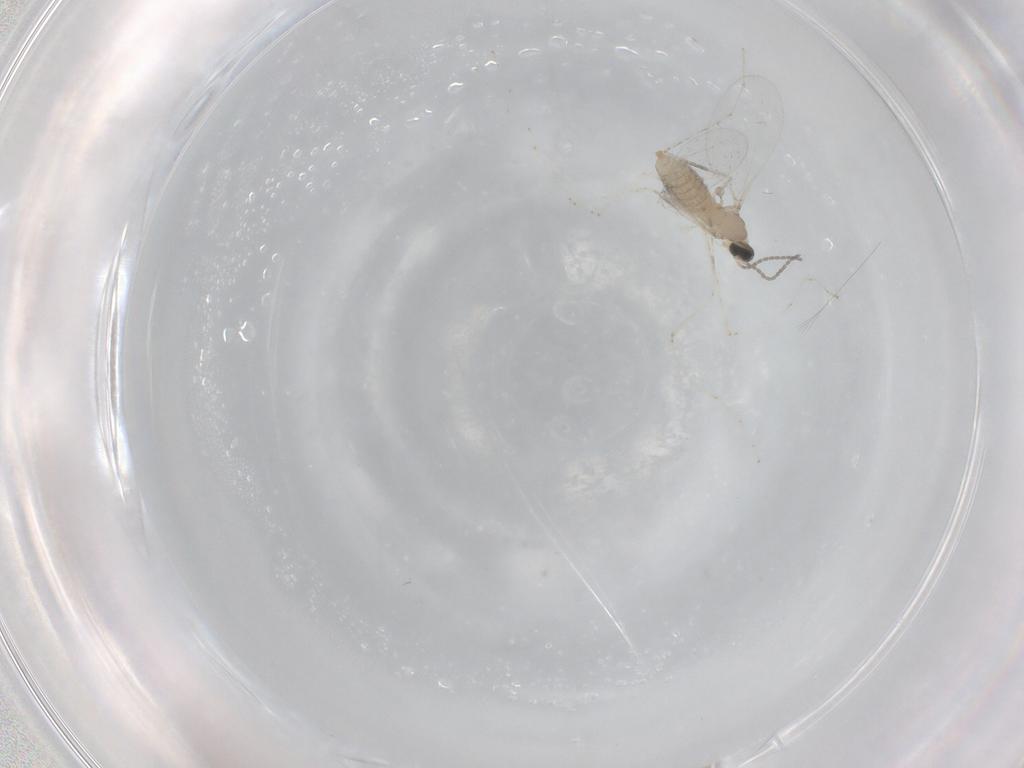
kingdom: Animalia
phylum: Arthropoda
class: Insecta
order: Diptera
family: Cecidomyiidae
